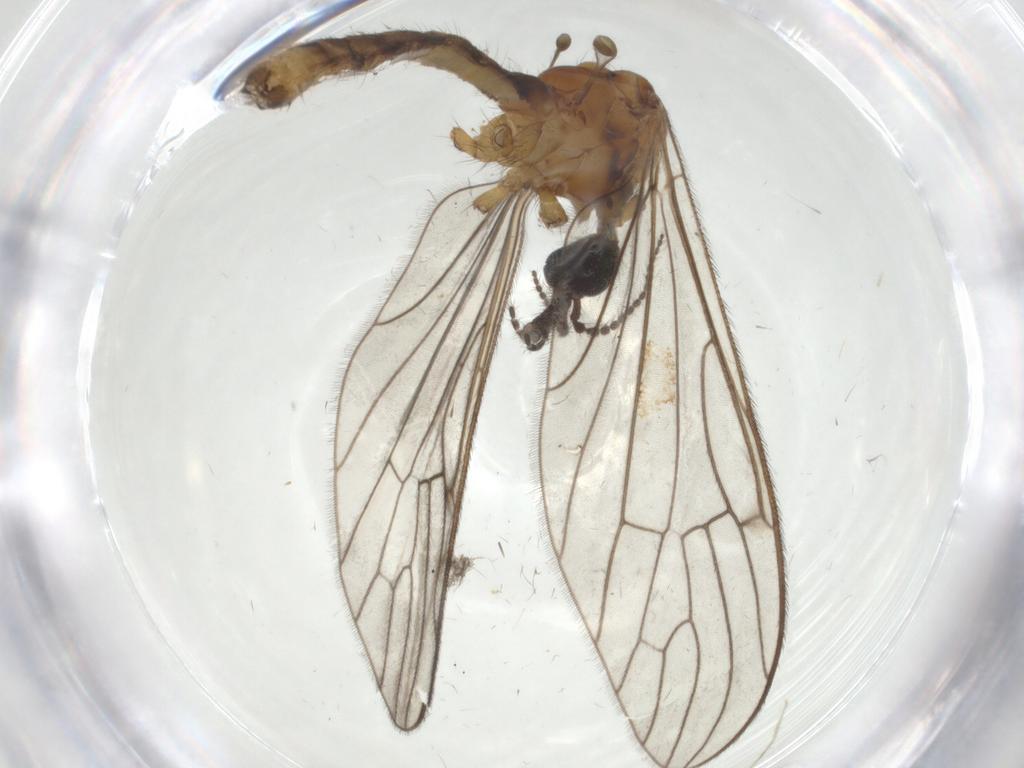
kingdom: Animalia
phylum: Arthropoda
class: Insecta
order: Diptera
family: Limoniidae
